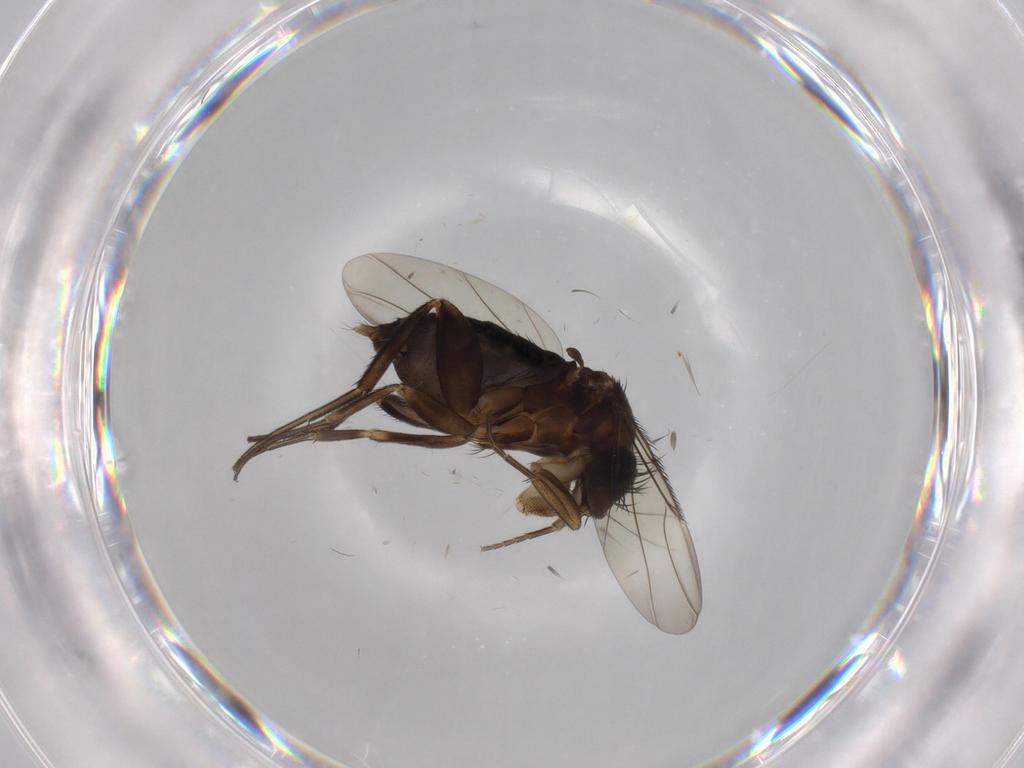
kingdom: Animalia
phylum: Arthropoda
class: Insecta
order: Diptera
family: Phoridae
